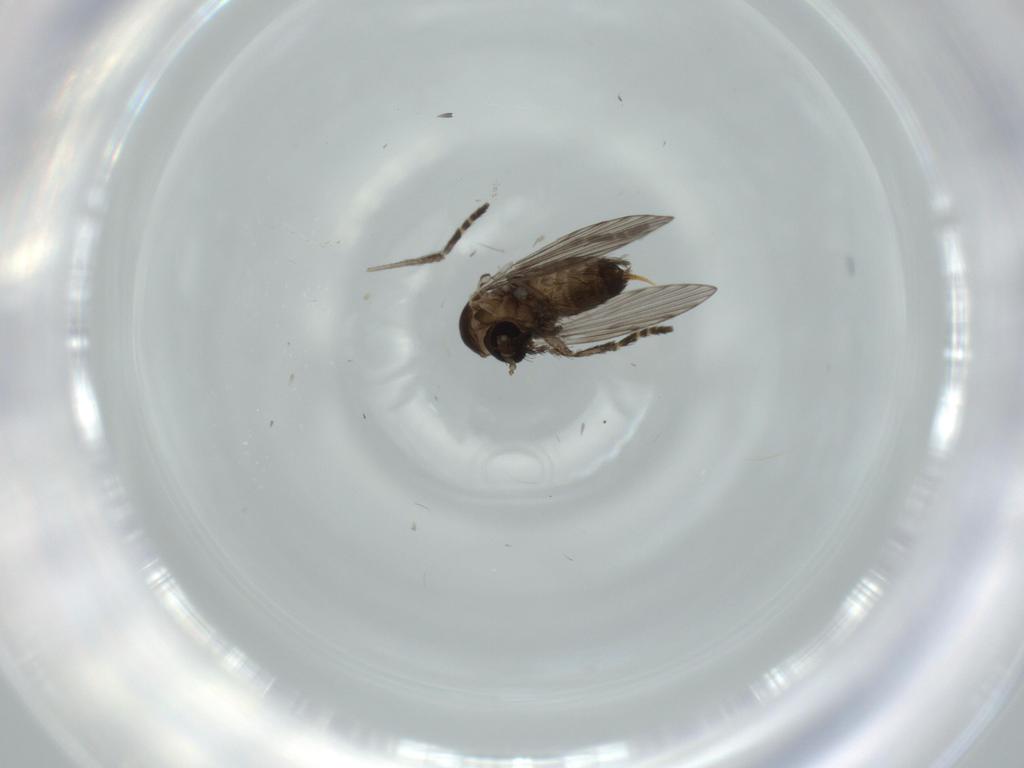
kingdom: Animalia
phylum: Arthropoda
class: Insecta
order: Diptera
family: Psychodidae
